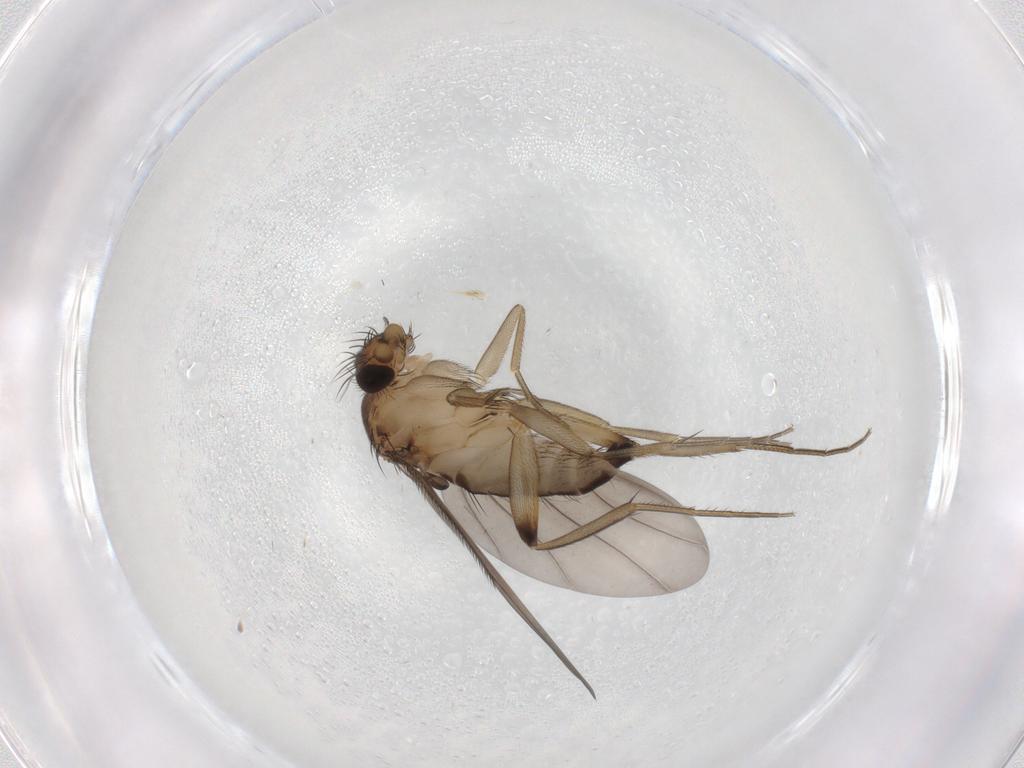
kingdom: Animalia
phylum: Arthropoda
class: Insecta
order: Diptera
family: Phoridae
